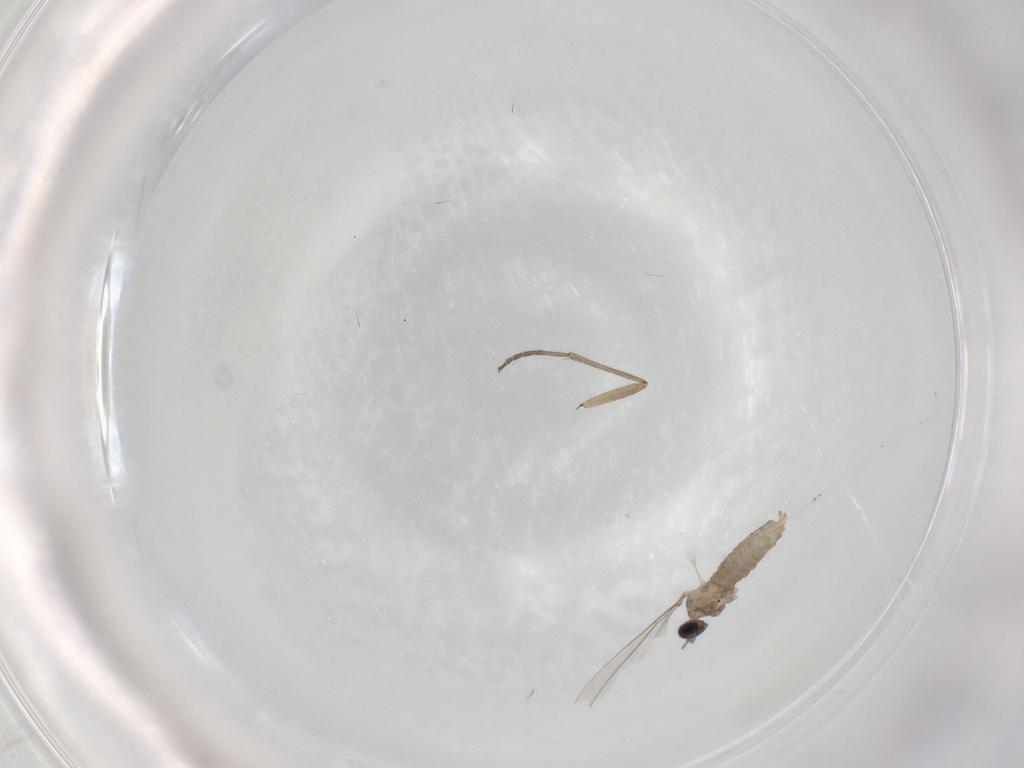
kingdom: Animalia
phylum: Arthropoda
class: Insecta
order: Diptera
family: Cecidomyiidae
